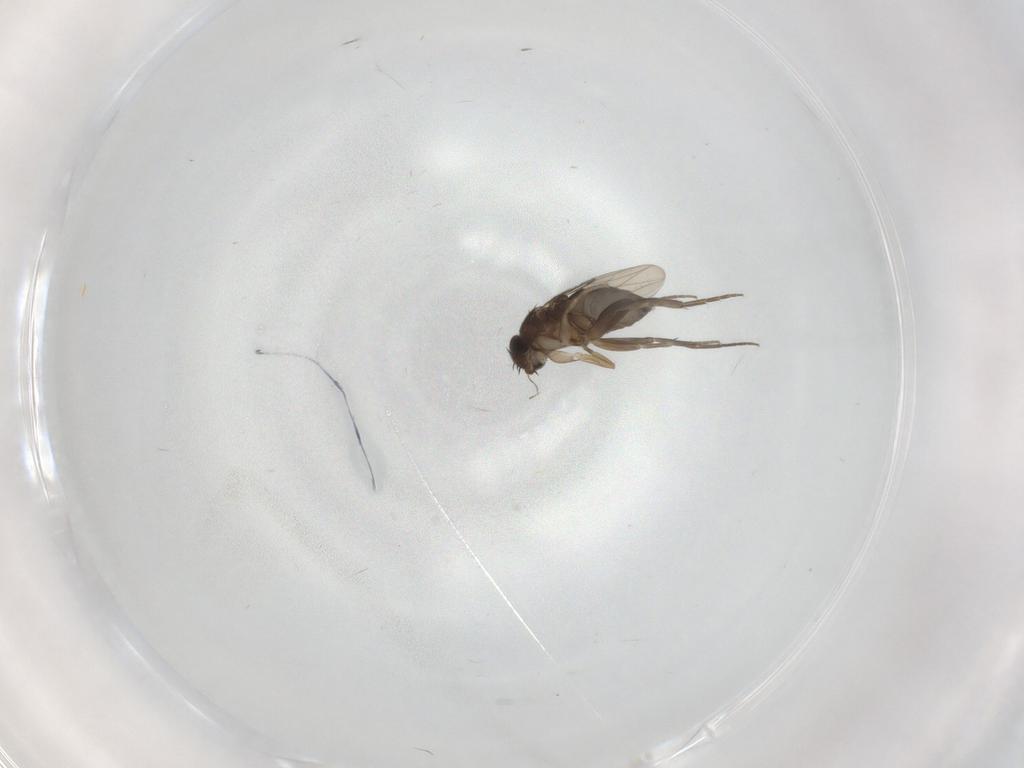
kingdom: Animalia
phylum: Arthropoda
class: Insecta
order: Diptera
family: Phoridae
